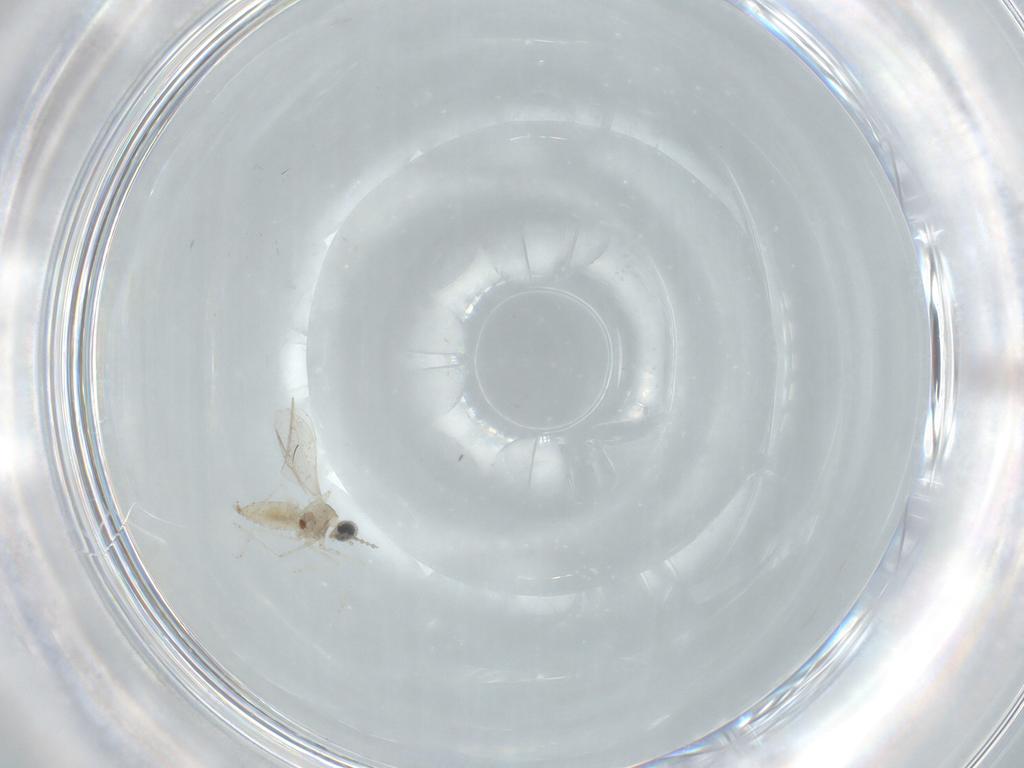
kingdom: Animalia
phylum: Arthropoda
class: Insecta
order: Diptera
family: Cecidomyiidae
